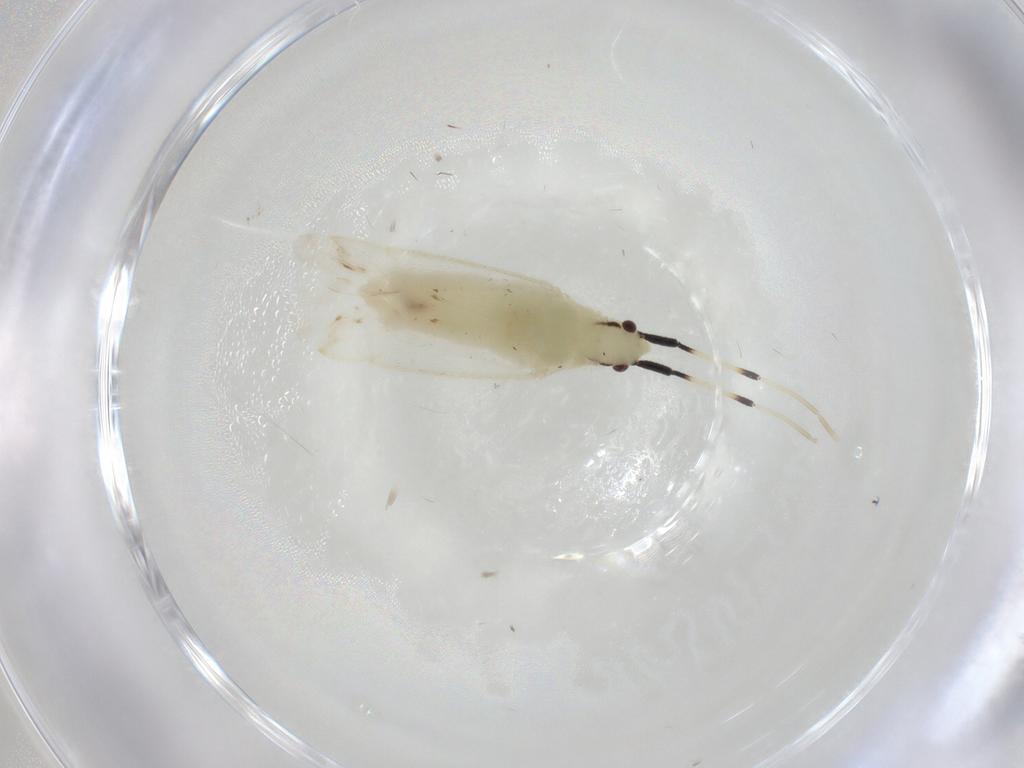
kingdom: Animalia
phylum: Arthropoda
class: Insecta
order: Hemiptera
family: Miridae
